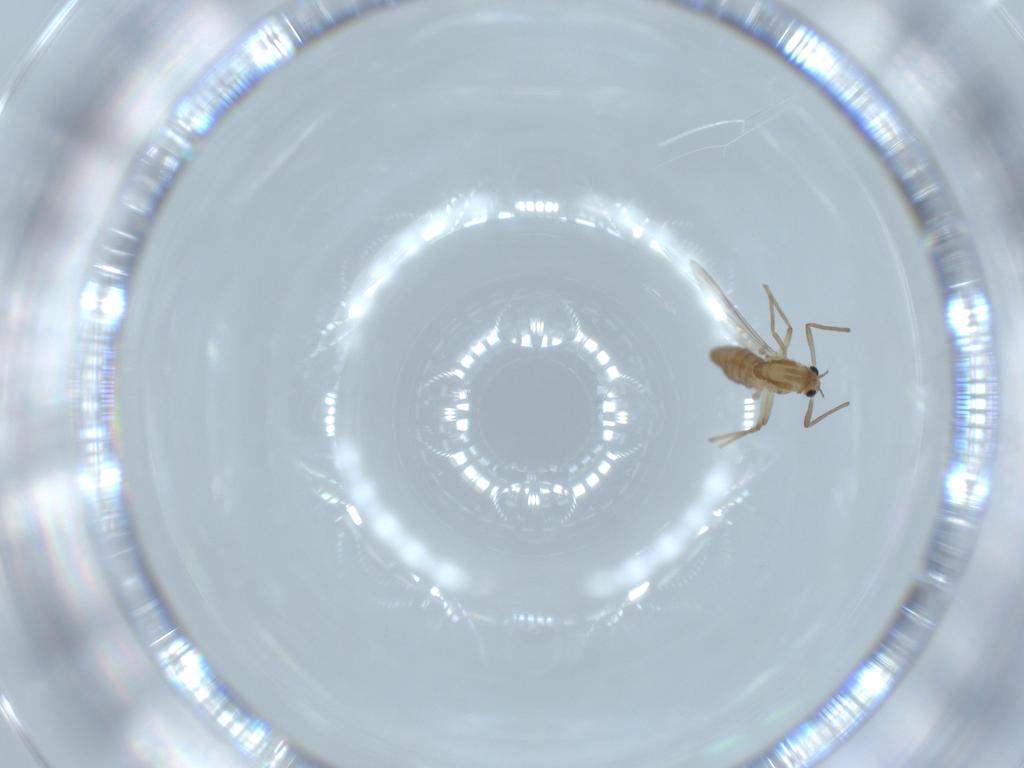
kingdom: Animalia
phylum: Arthropoda
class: Insecta
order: Diptera
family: Chironomidae
